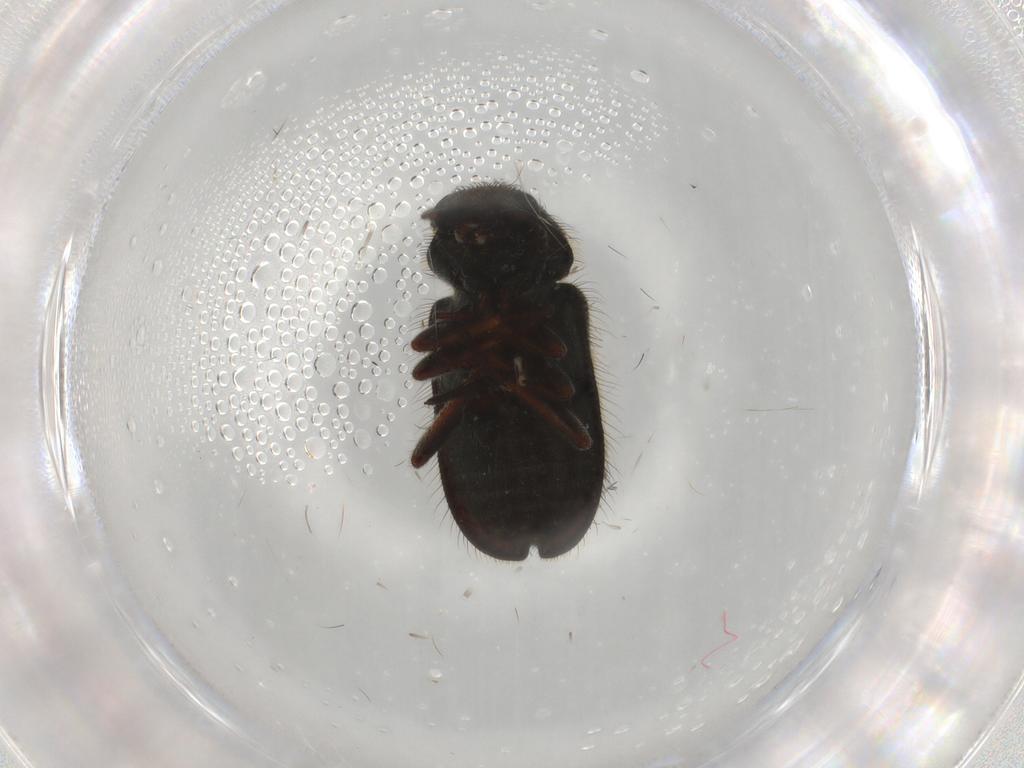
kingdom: Animalia
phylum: Arthropoda
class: Insecta
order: Coleoptera
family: Melyridae
